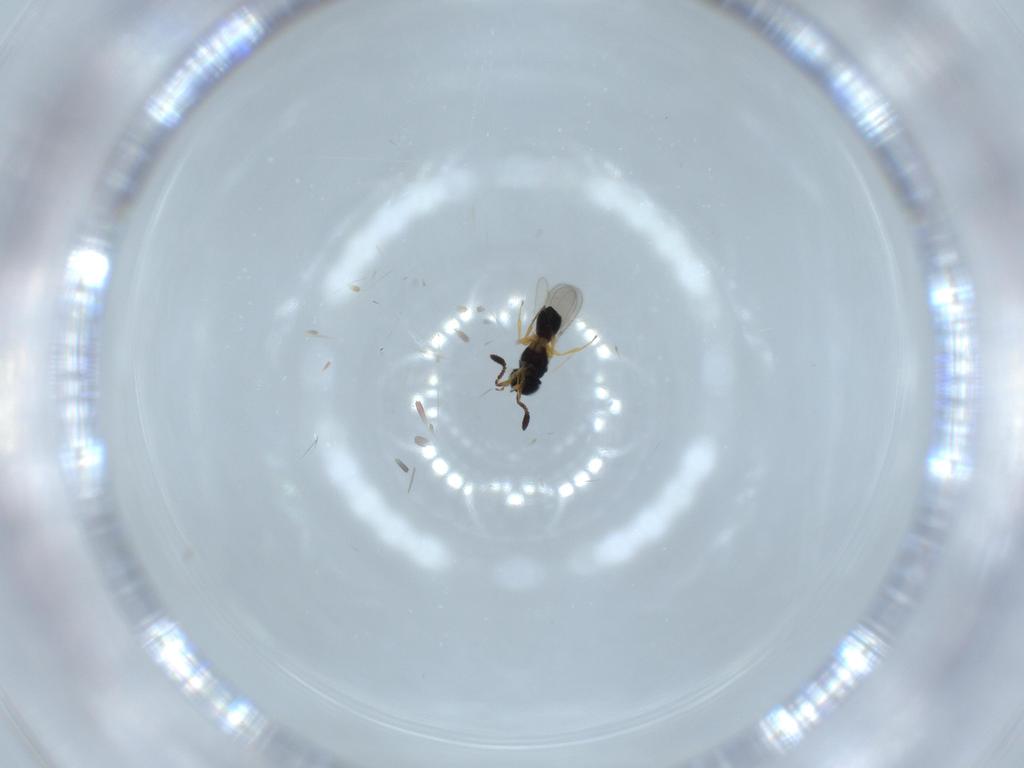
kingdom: Animalia
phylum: Arthropoda
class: Insecta
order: Hymenoptera
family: Scelionidae
